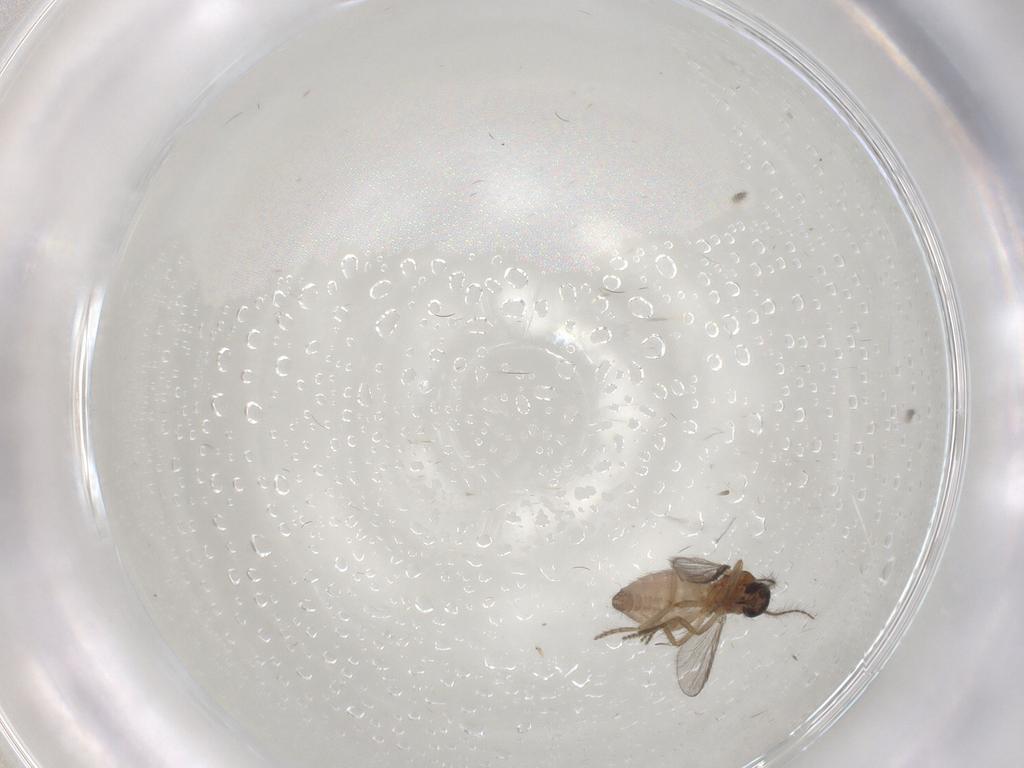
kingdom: Animalia
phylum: Arthropoda
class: Insecta
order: Diptera
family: Ceratopogonidae
